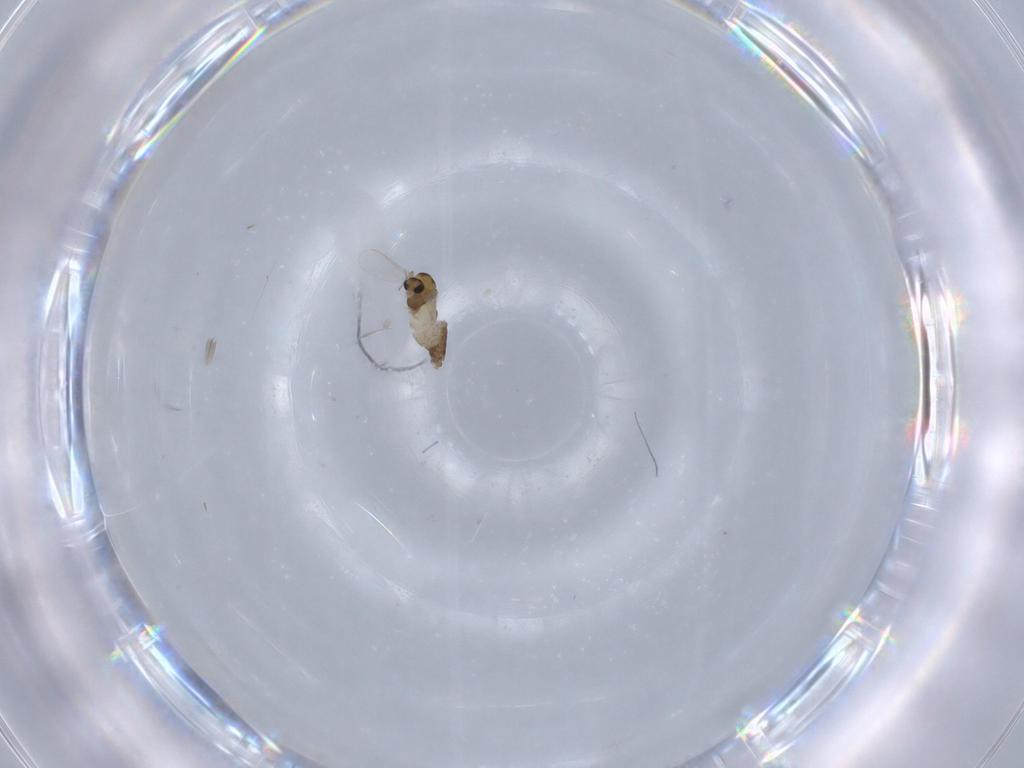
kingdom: Animalia
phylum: Arthropoda
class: Insecta
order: Diptera
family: Chironomidae
